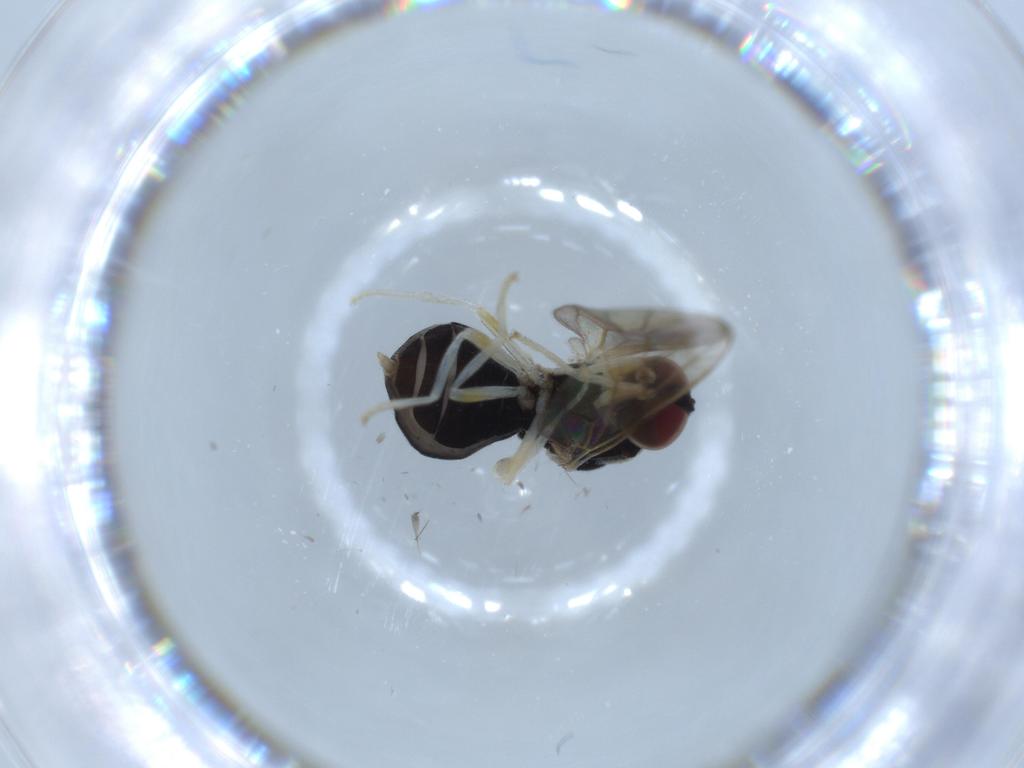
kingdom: Animalia
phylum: Arthropoda
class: Insecta
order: Diptera
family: Stratiomyidae
